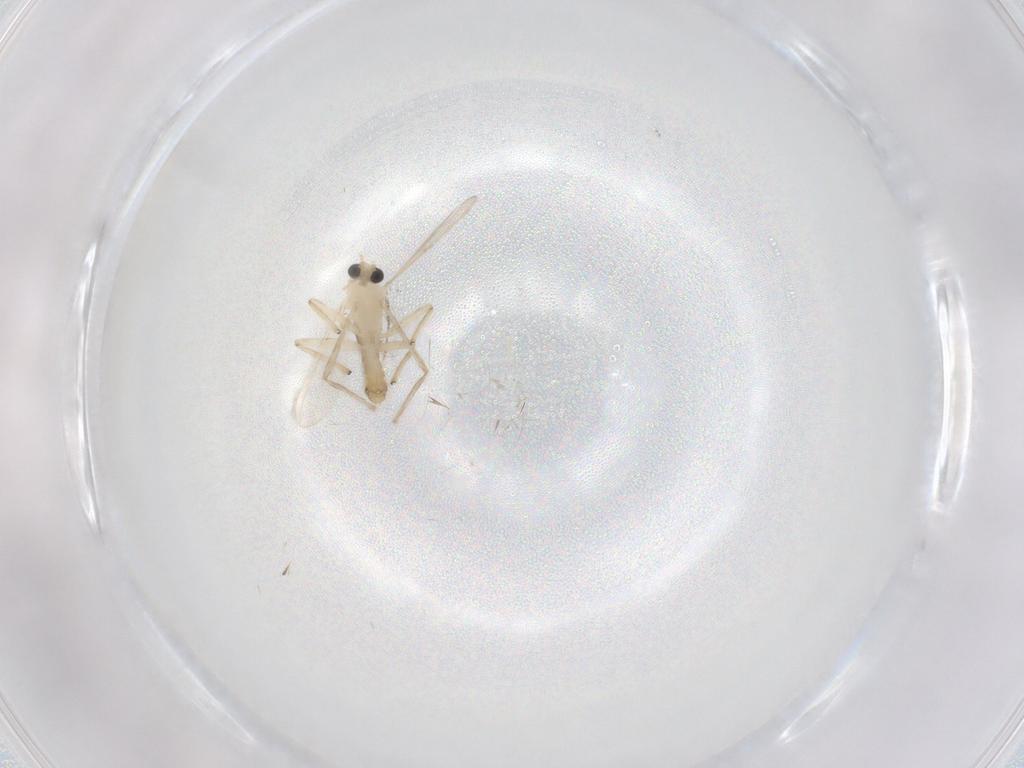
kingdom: Animalia
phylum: Arthropoda
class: Insecta
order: Diptera
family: Chironomidae
